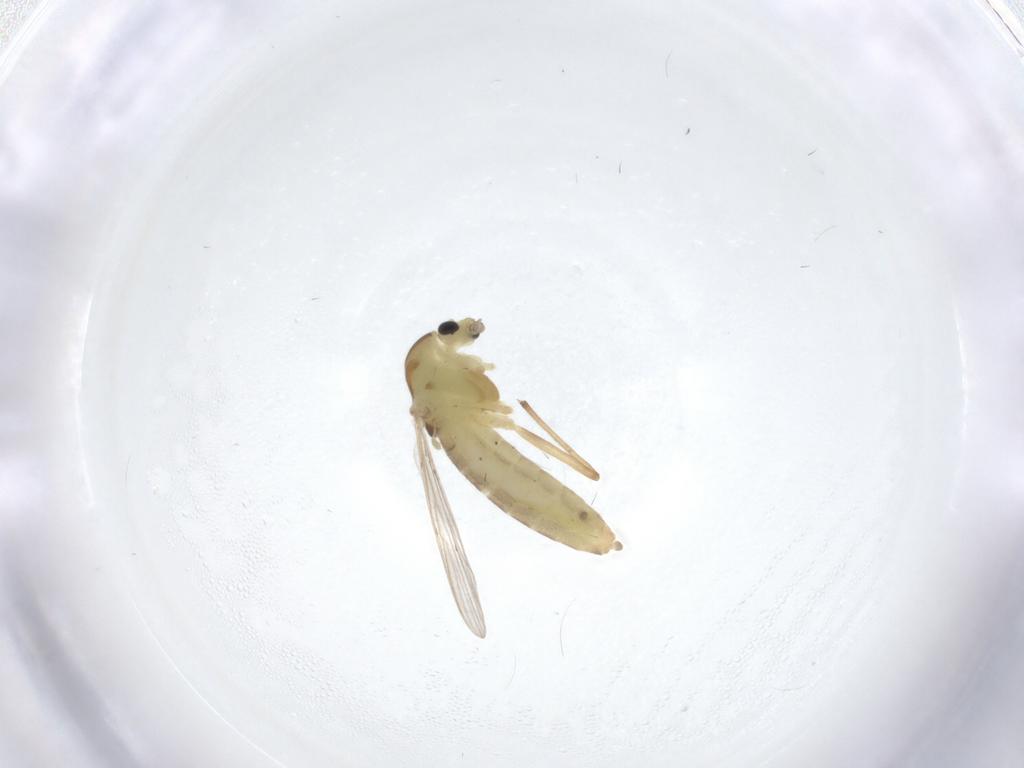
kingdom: Animalia
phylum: Arthropoda
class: Insecta
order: Diptera
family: Chironomidae
